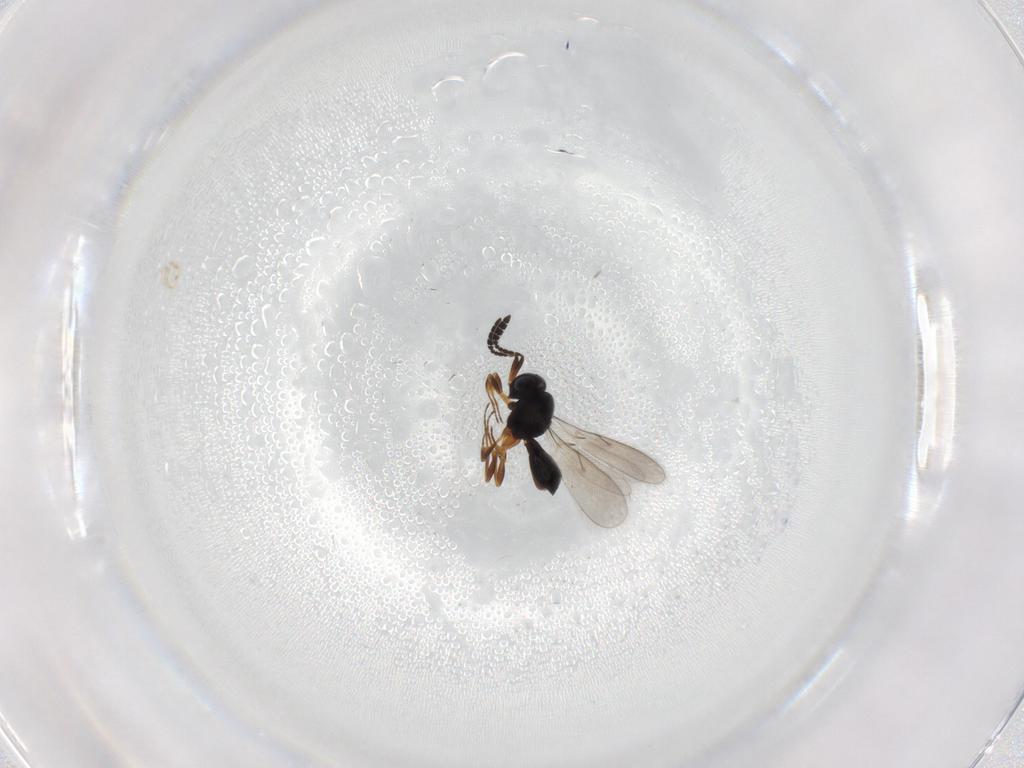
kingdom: Animalia
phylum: Arthropoda
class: Insecta
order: Hymenoptera
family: Scelionidae
